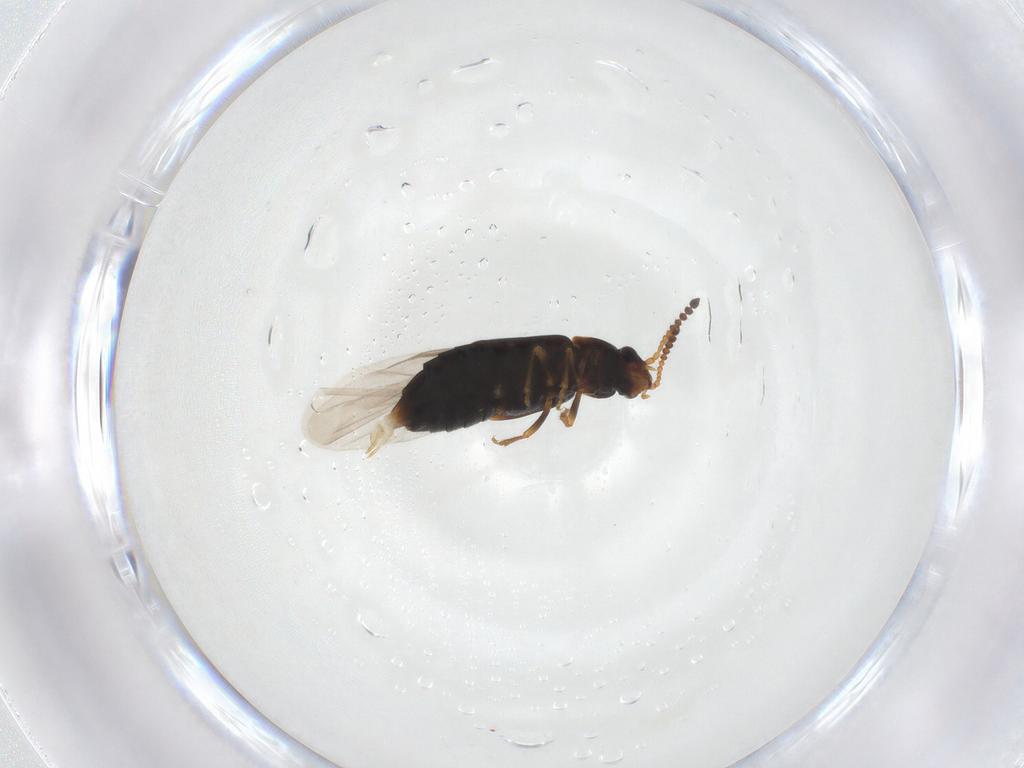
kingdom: Animalia
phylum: Arthropoda
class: Insecta
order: Coleoptera
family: Staphylinidae
